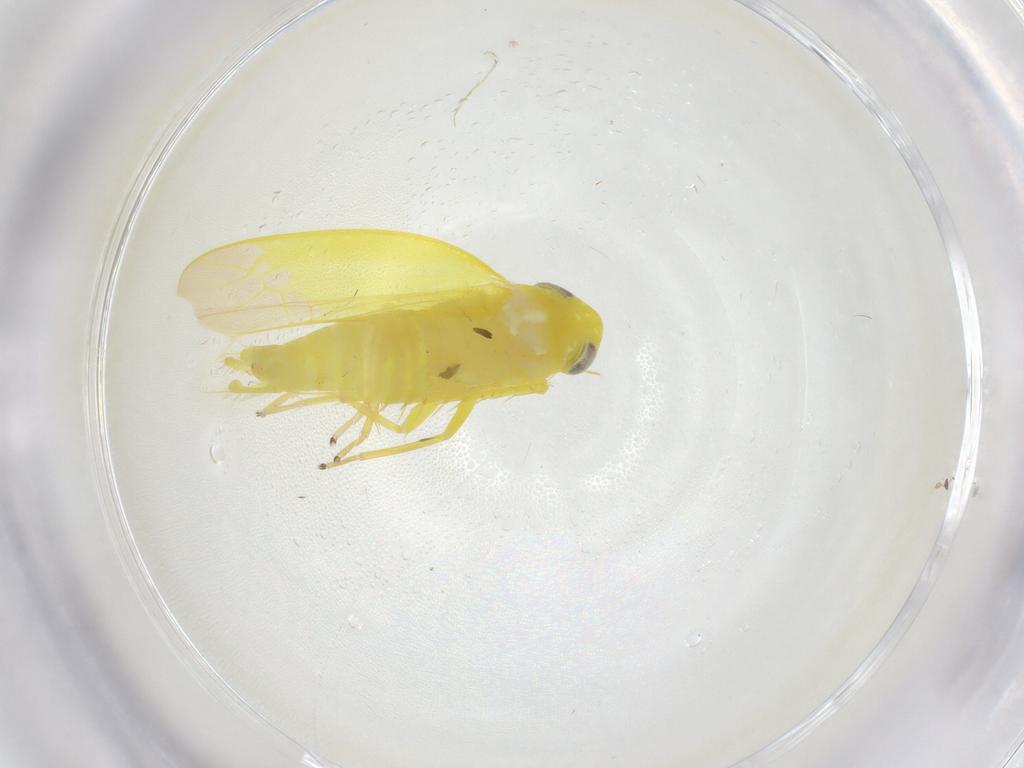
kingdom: Animalia
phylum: Arthropoda
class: Insecta
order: Hemiptera
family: Cicadellidae
